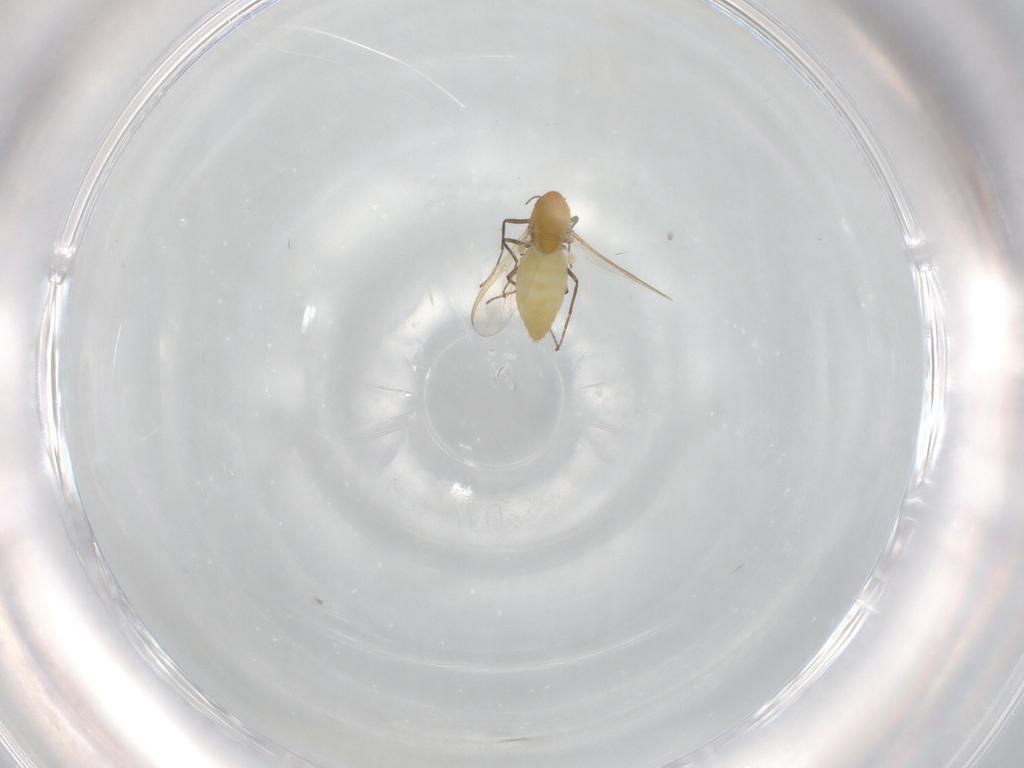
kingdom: Animalia
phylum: Arthropoda
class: Insecta
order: Diptera
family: Chironomidae
